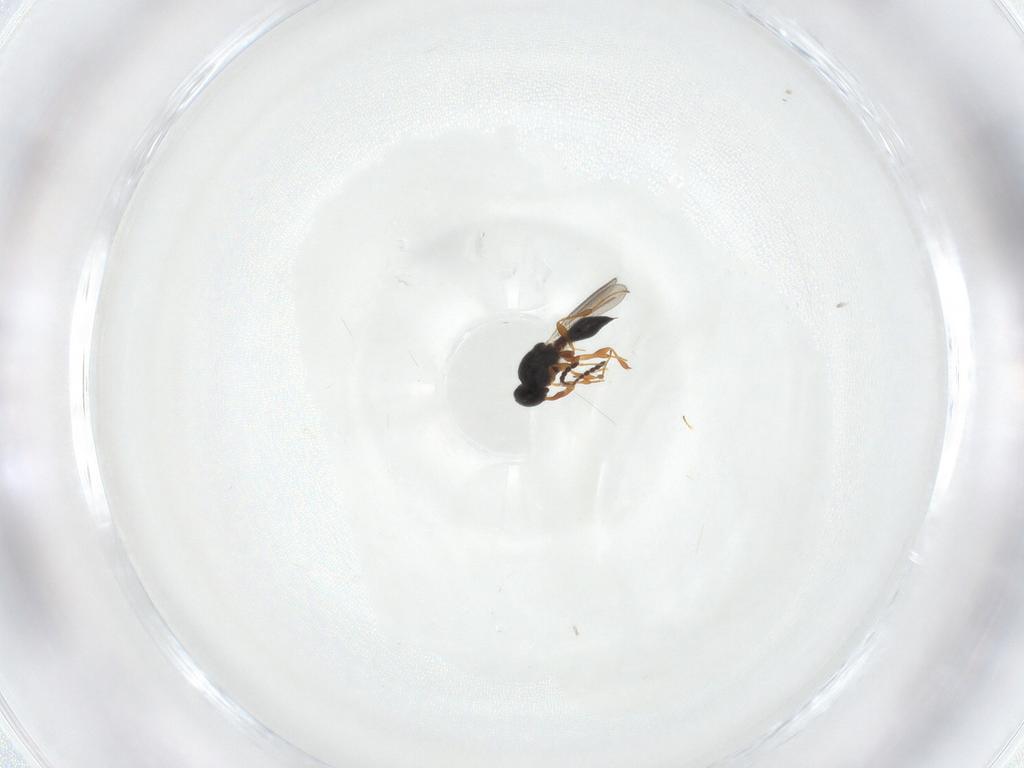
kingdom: Animalia
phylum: Arthropoda
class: Insecta
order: Hymenoptera
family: Platygastridae
